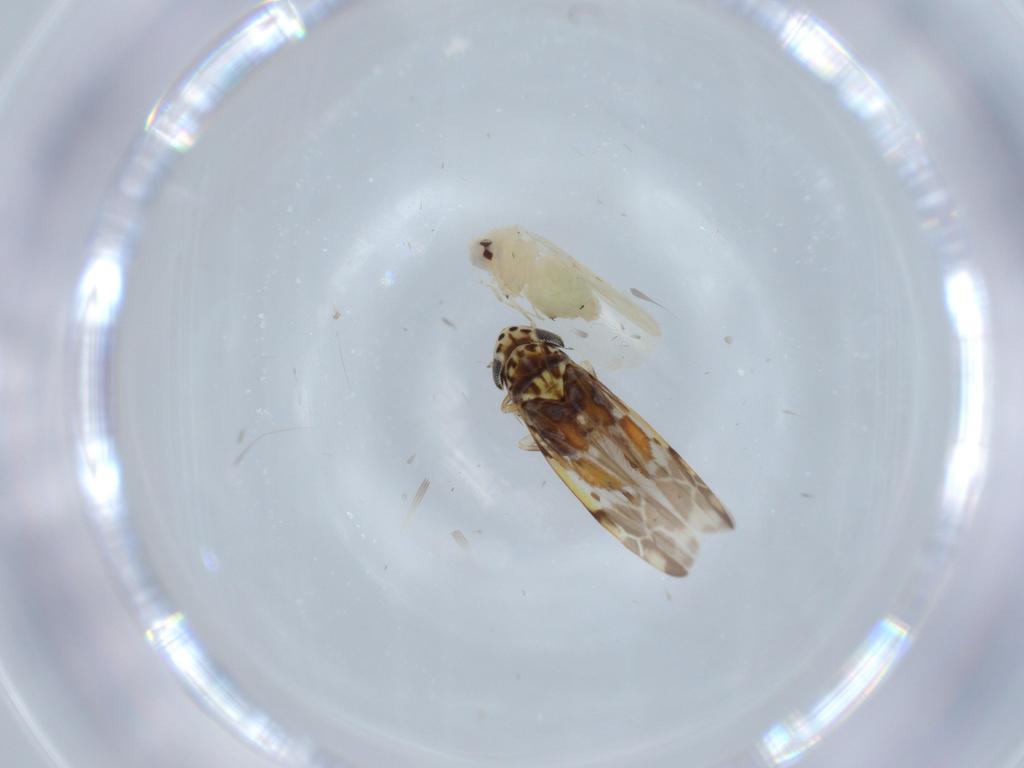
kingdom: Animalia
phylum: Arthropoda
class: Insecta
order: Hemiptera
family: Cicadellidae
